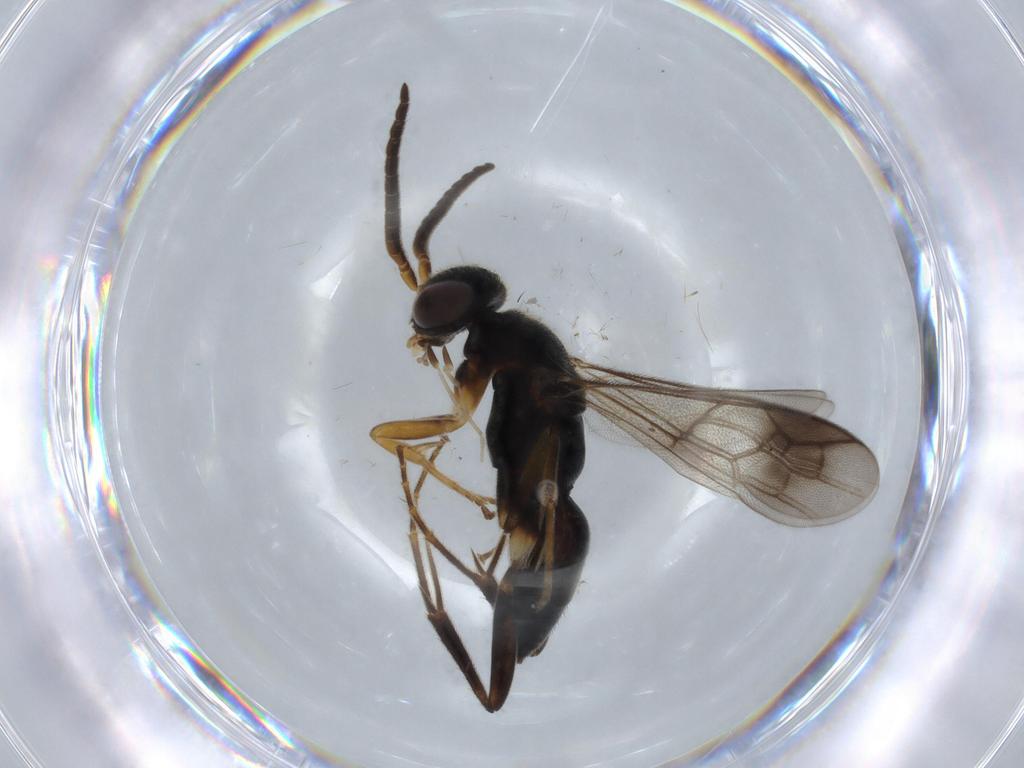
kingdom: Animalia
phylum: Arthropoda
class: Insecta
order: Hymenoptera
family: Pompilidae
